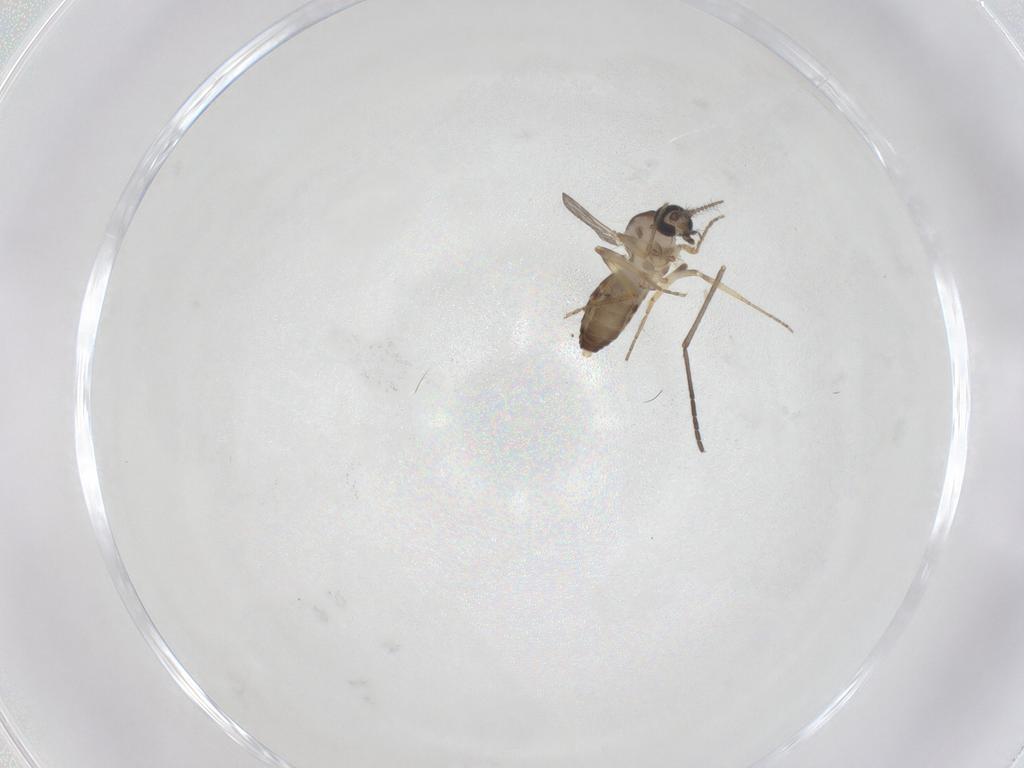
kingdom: Animalia
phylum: Arthropoda
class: Insecta
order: Diptera
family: Ceratopogonidae
